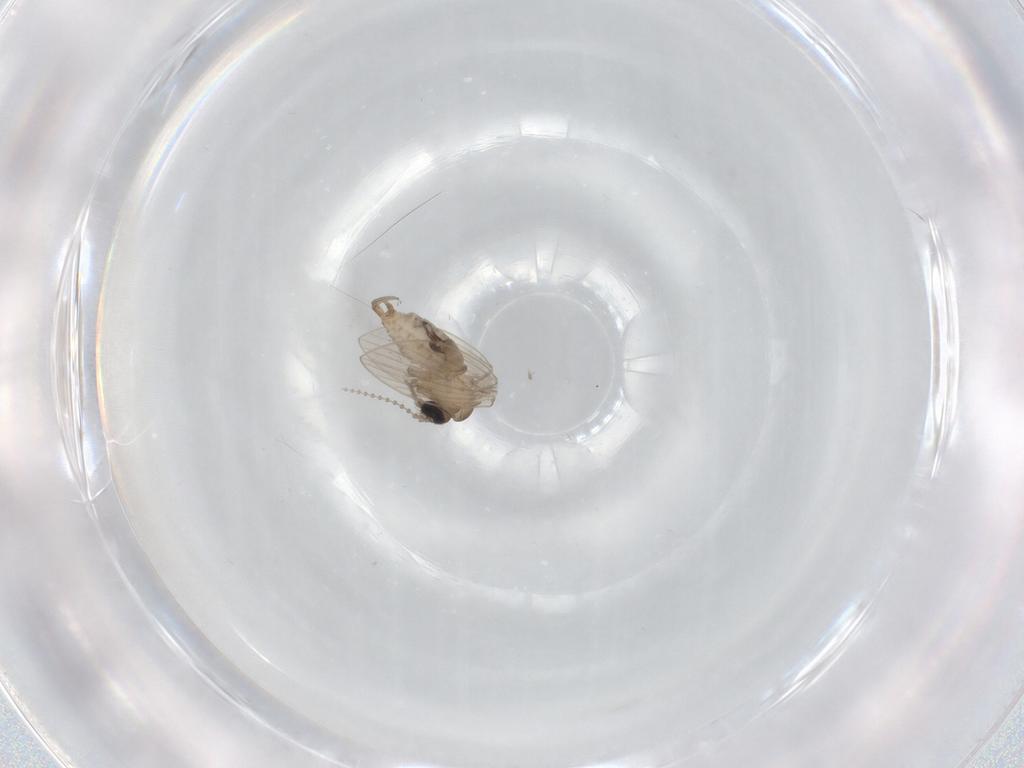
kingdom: Animalia
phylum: Arthropoda
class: Insecta
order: Diptera
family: Psychodidae
